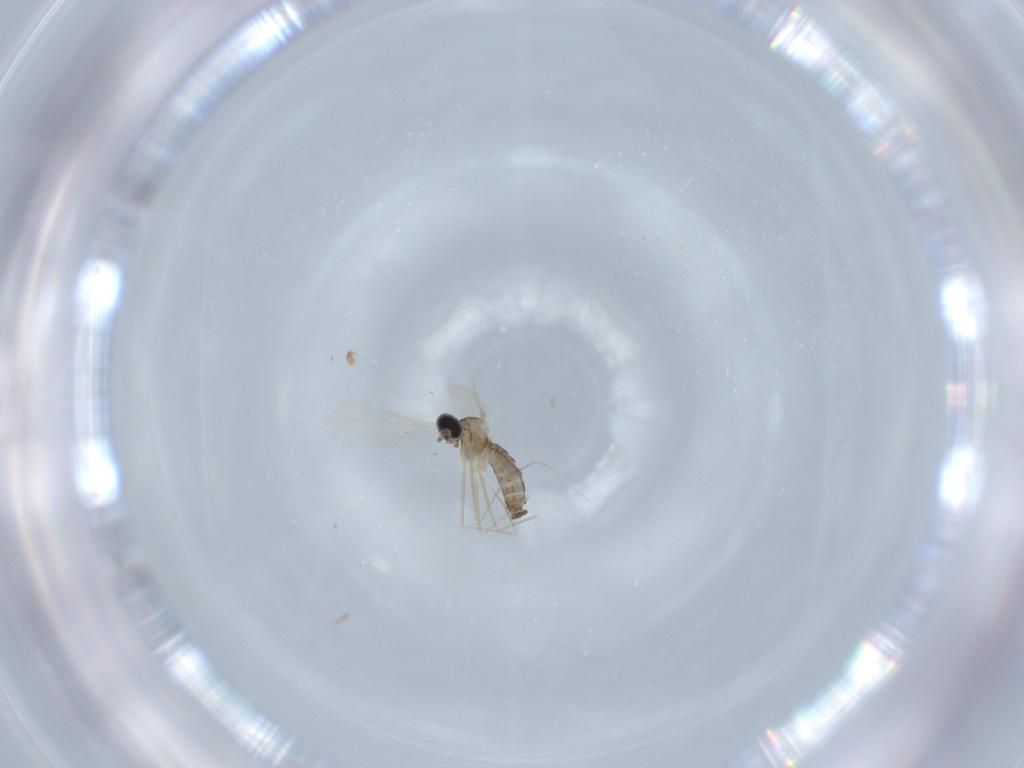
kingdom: Animalia
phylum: Arthropoda
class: Insecta
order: Diptera
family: Cecidomyiidae
